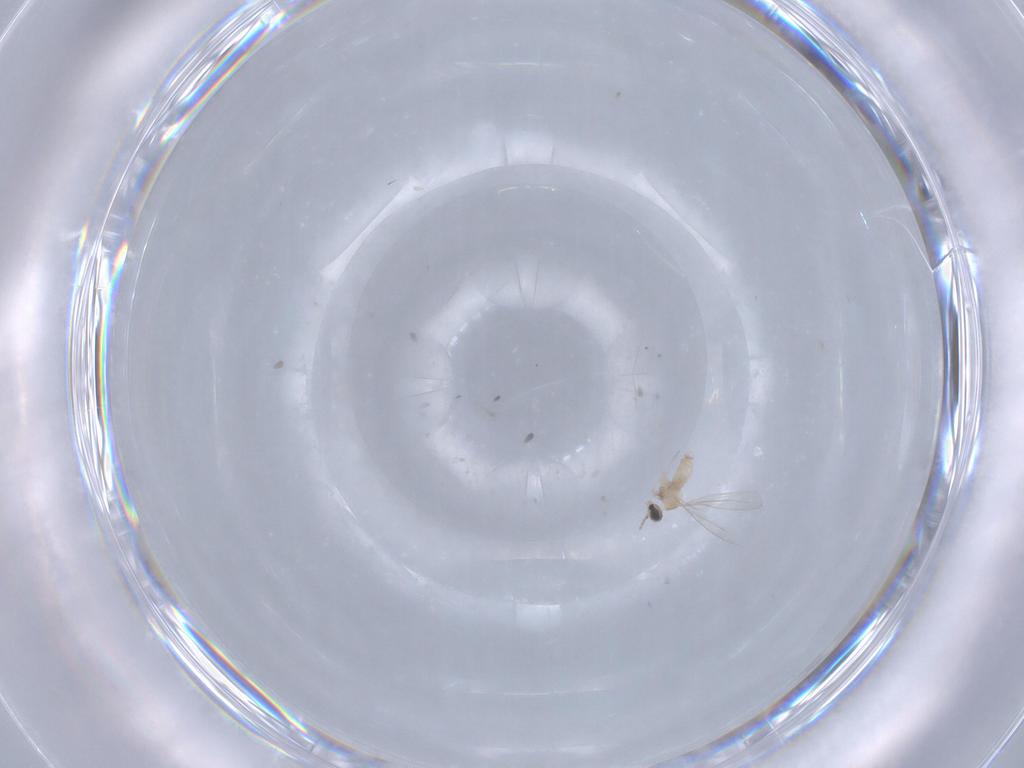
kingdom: Animalia
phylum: Arthropoda
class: Insecta
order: Diptera
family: Cecidomyiidae
